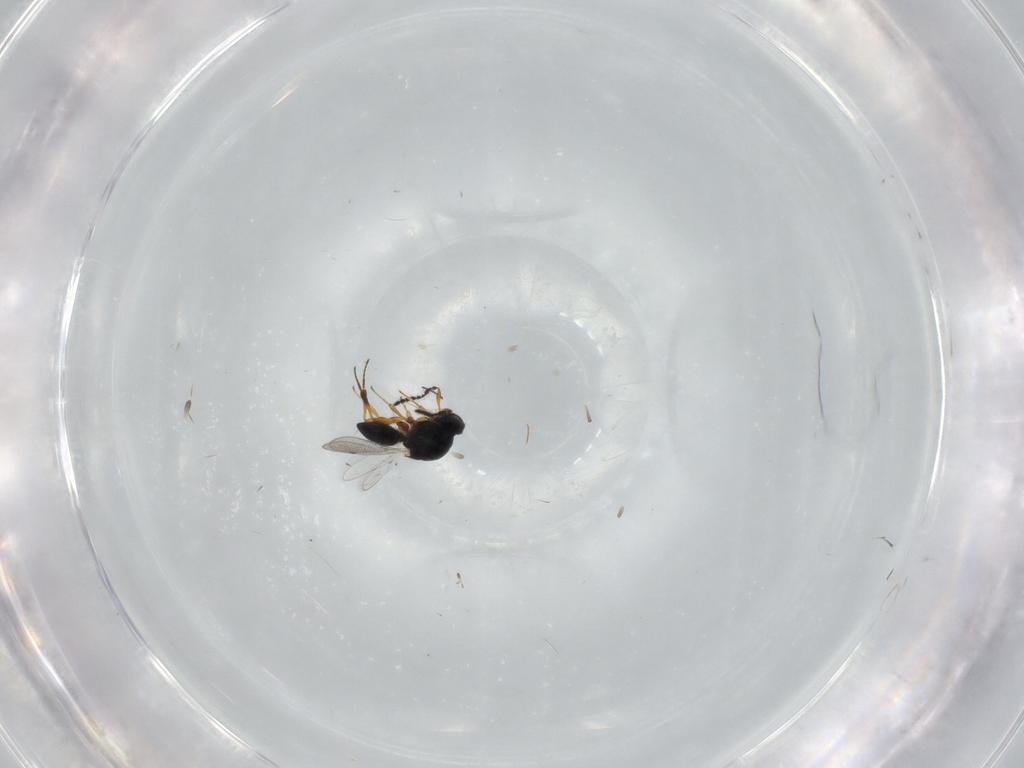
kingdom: Animalia
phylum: Arthropoda
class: Insecta
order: Hymenoptera
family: Platygastridae
